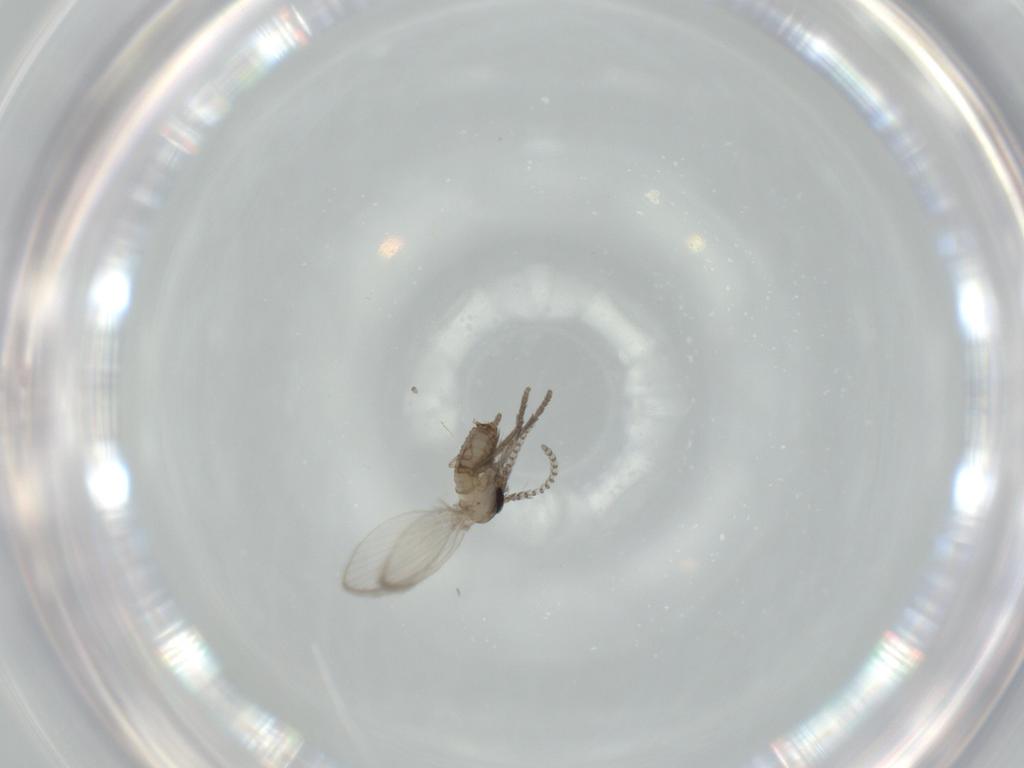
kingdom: Animalia
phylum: Arthropoda
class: Insecta
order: Diptera
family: Psychodidae
